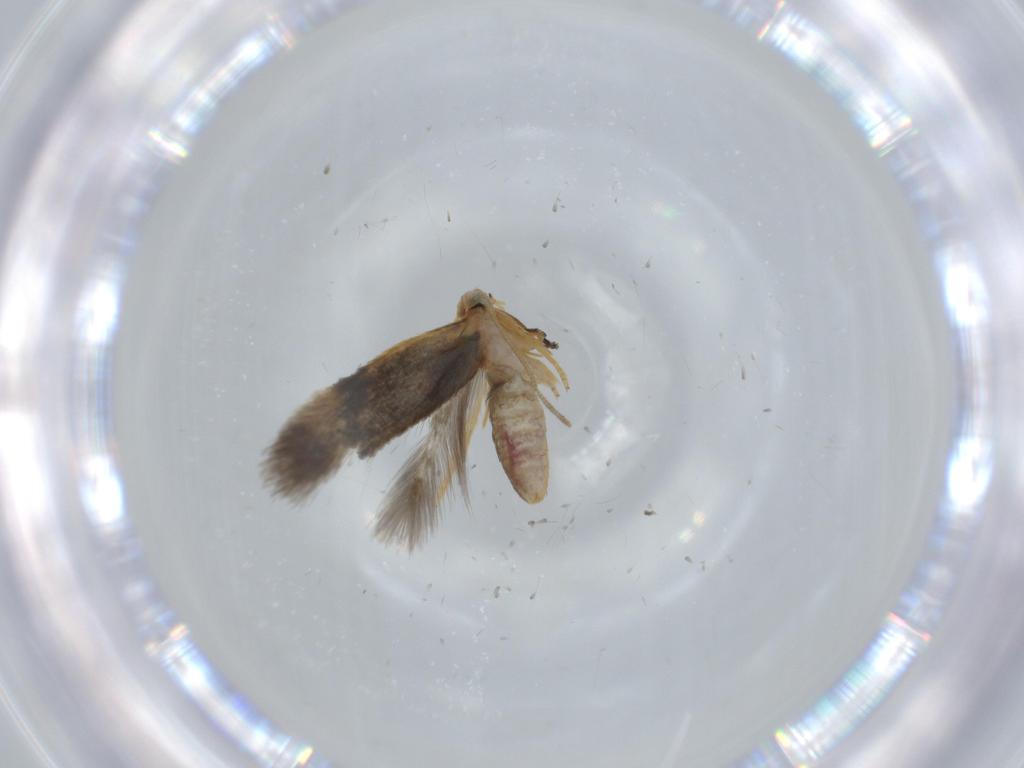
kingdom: Animalia
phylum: Arthropoda
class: Insecta
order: Lepidoptera
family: Nepticulidae
